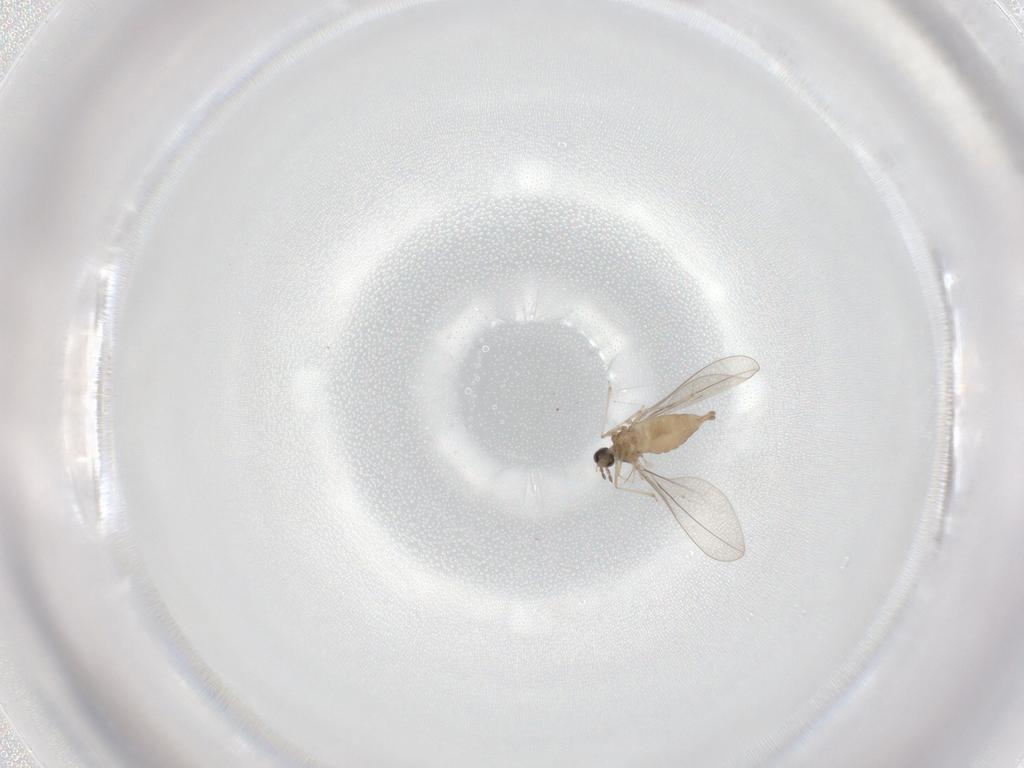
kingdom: Animalia
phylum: Arthropoda
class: Insecta
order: Diptera
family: Cecidomyiidae
